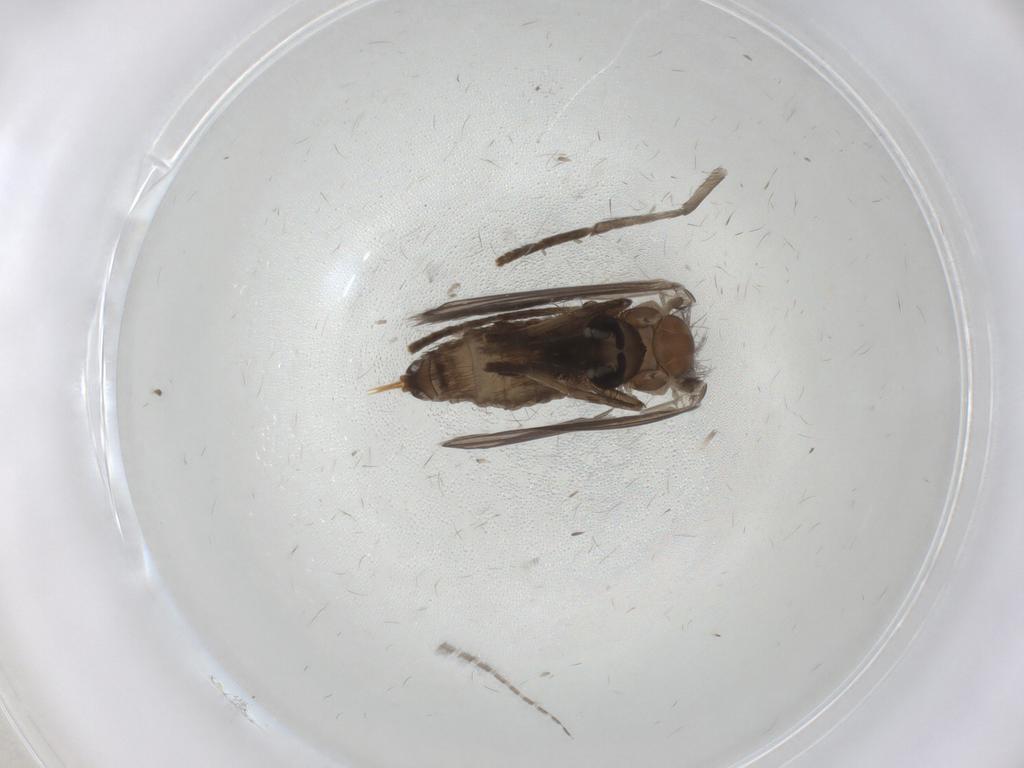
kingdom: Animalia
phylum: Arthropoda
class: Insecta
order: Diptera
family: Psychodidae
